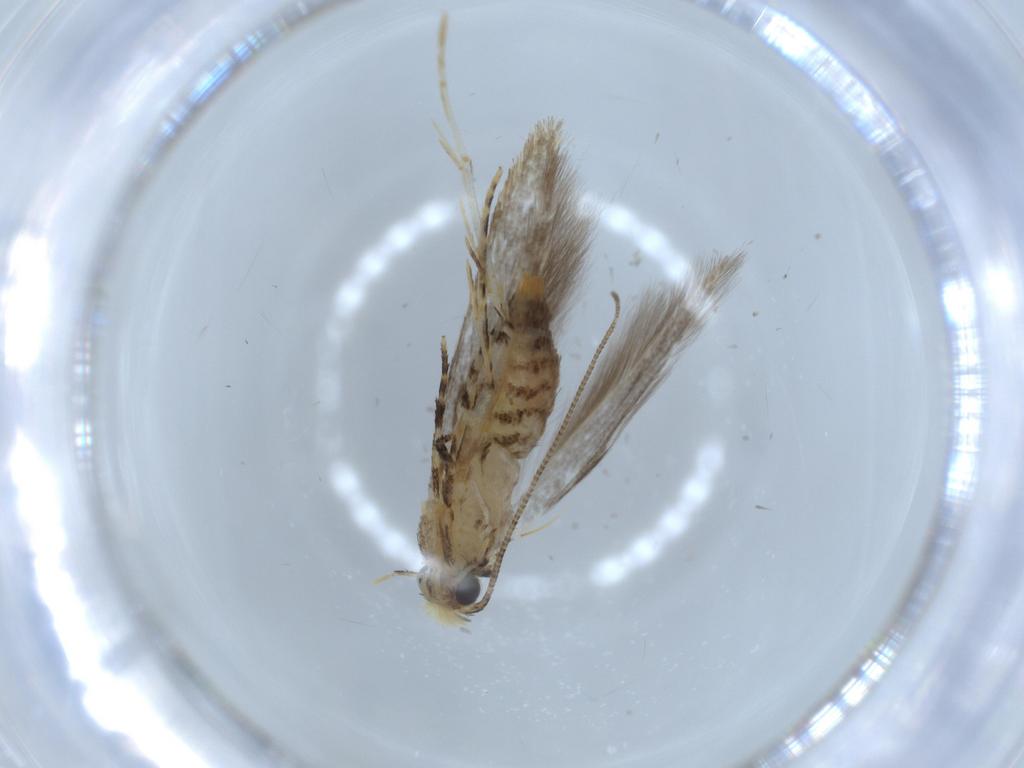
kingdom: Animalia
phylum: Arthropoda
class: Insecta
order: Lepidoptera
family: Tineidae
